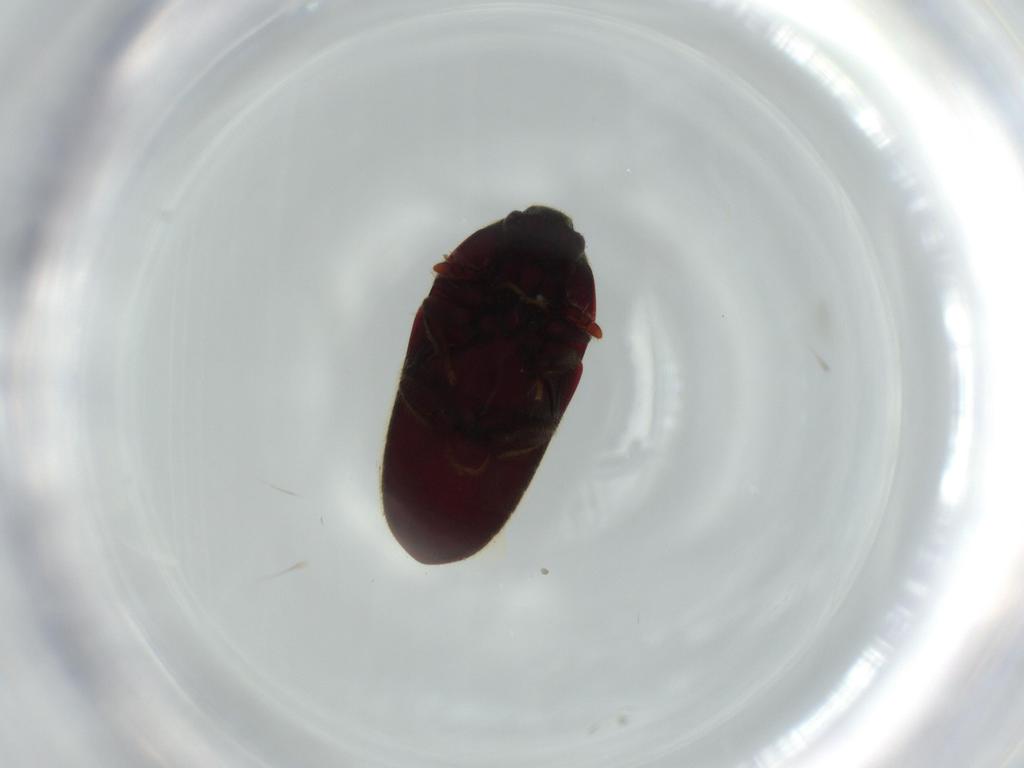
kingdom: Animalia
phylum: Arthropoda
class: Insecta
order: Coleoptera
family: Throscidae
